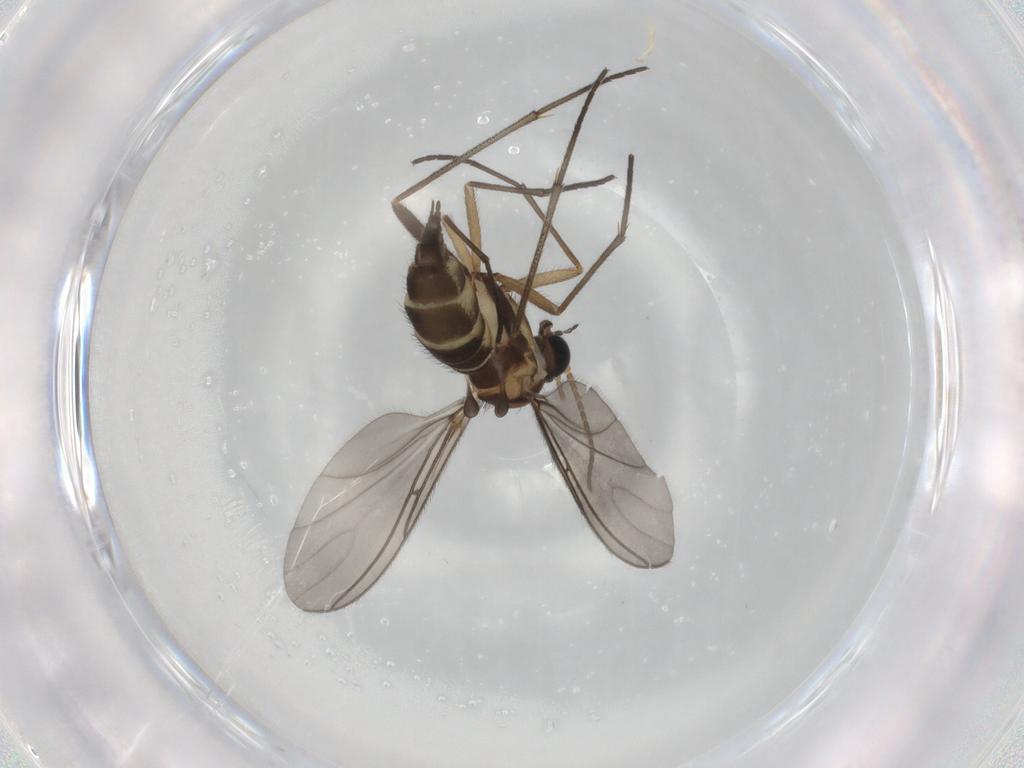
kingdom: Animalia
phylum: Arthropoda
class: Insecta
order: Diptera
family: Sciaridae
